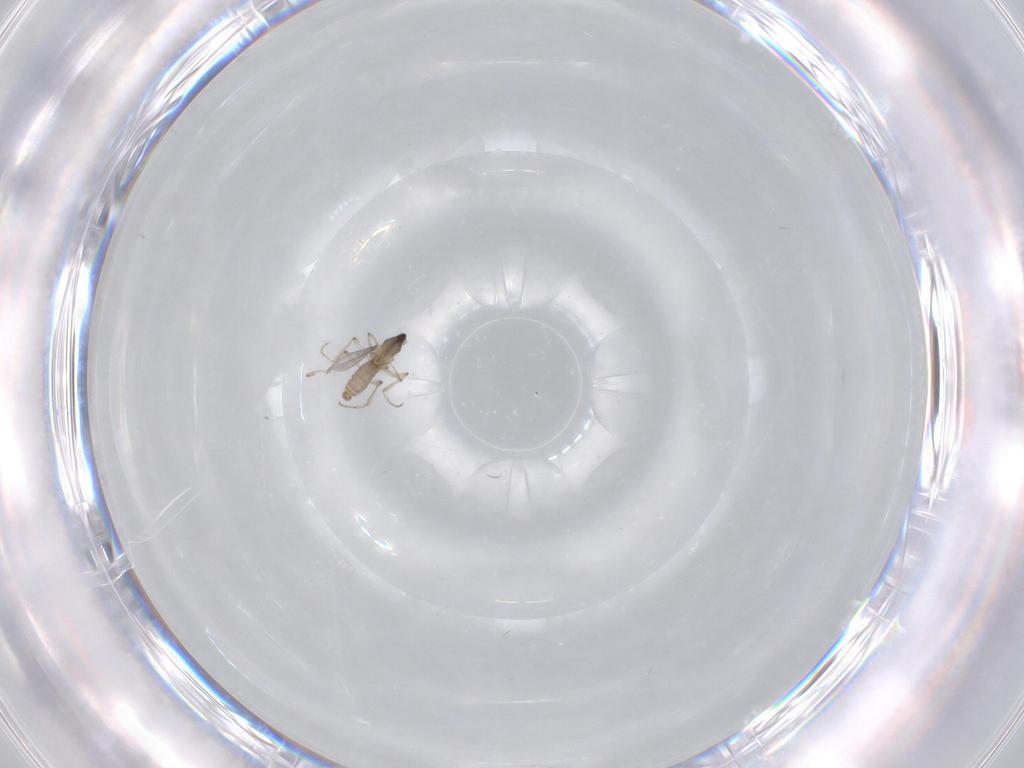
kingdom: Animalia
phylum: Arthropoda
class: Insecta
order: Diptera
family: Cecidomyiidae
